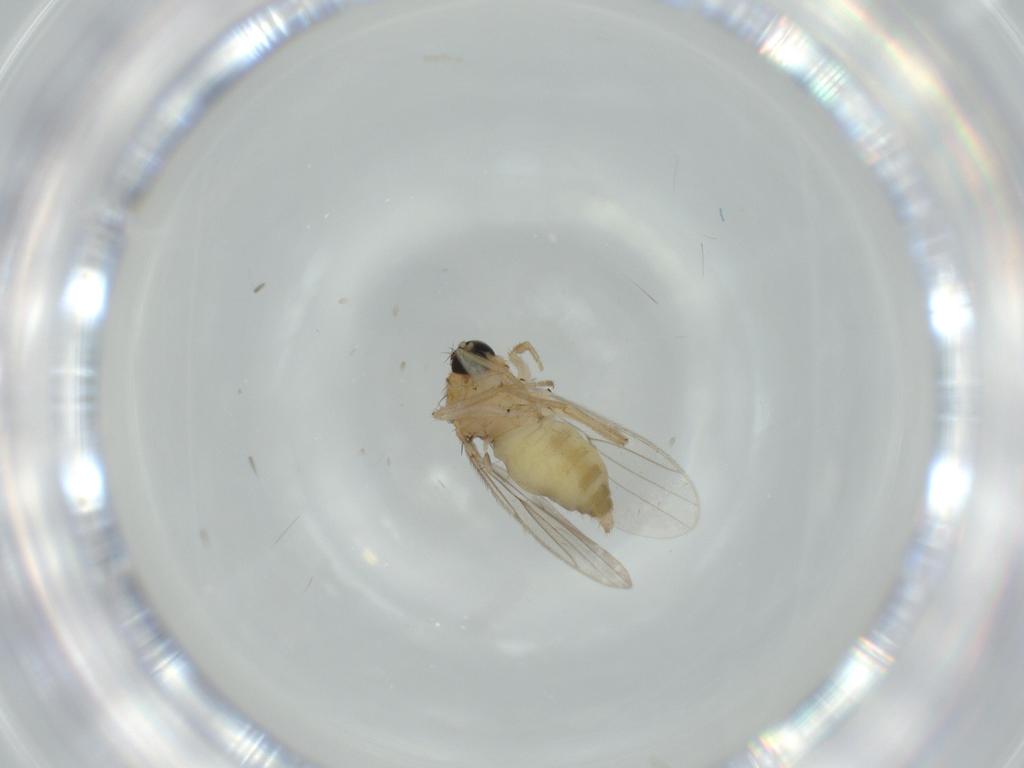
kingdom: Animalia
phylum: Arthropoda
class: Insecta
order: Diptera
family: Hybotidae
